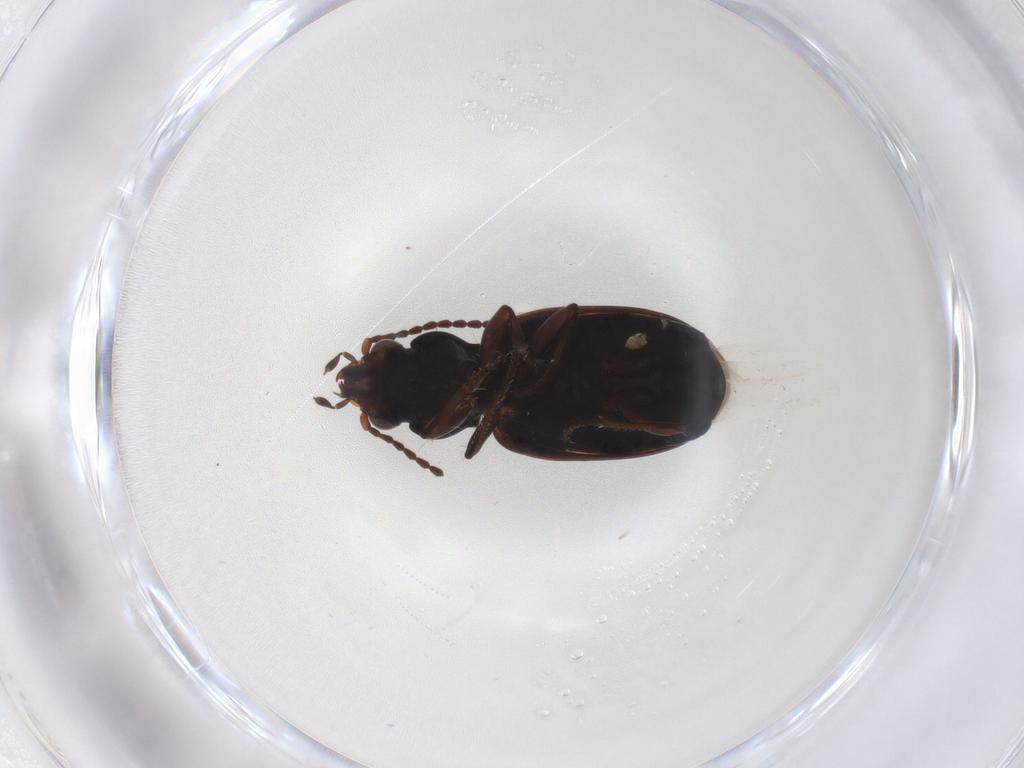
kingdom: Animalia
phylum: Arthropoda
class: Insecta
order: Coleoptera
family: Carabidae
